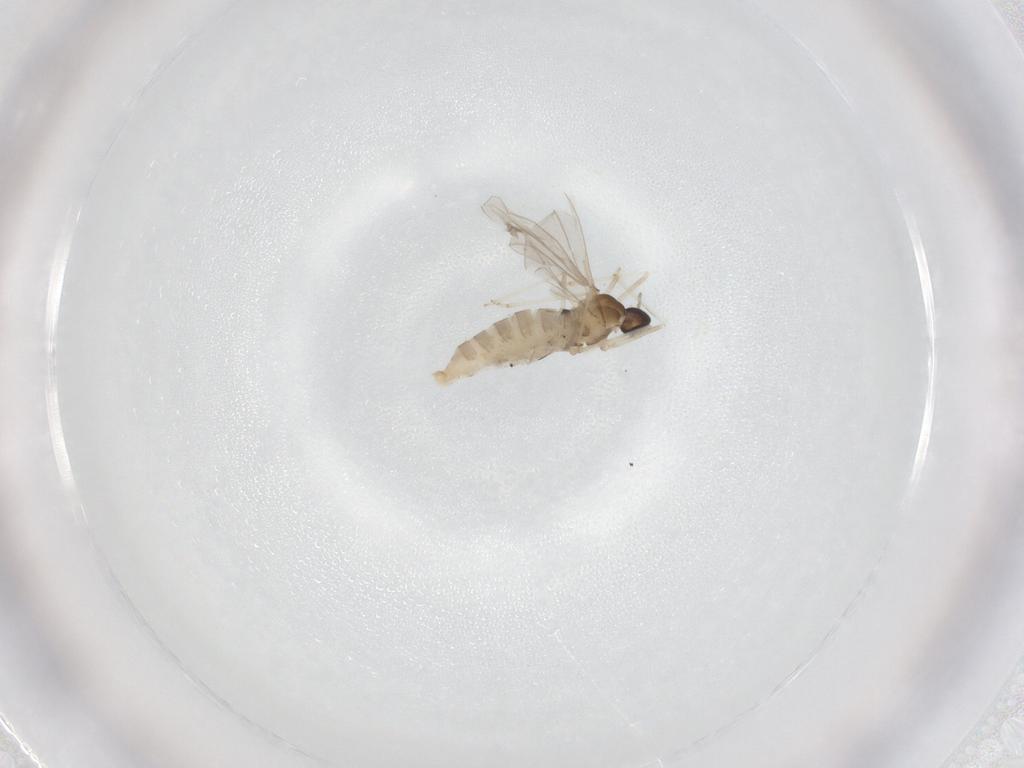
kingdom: Animalia
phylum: Arthropoda
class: Insecta
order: Diptera
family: Cecidomyiidae
